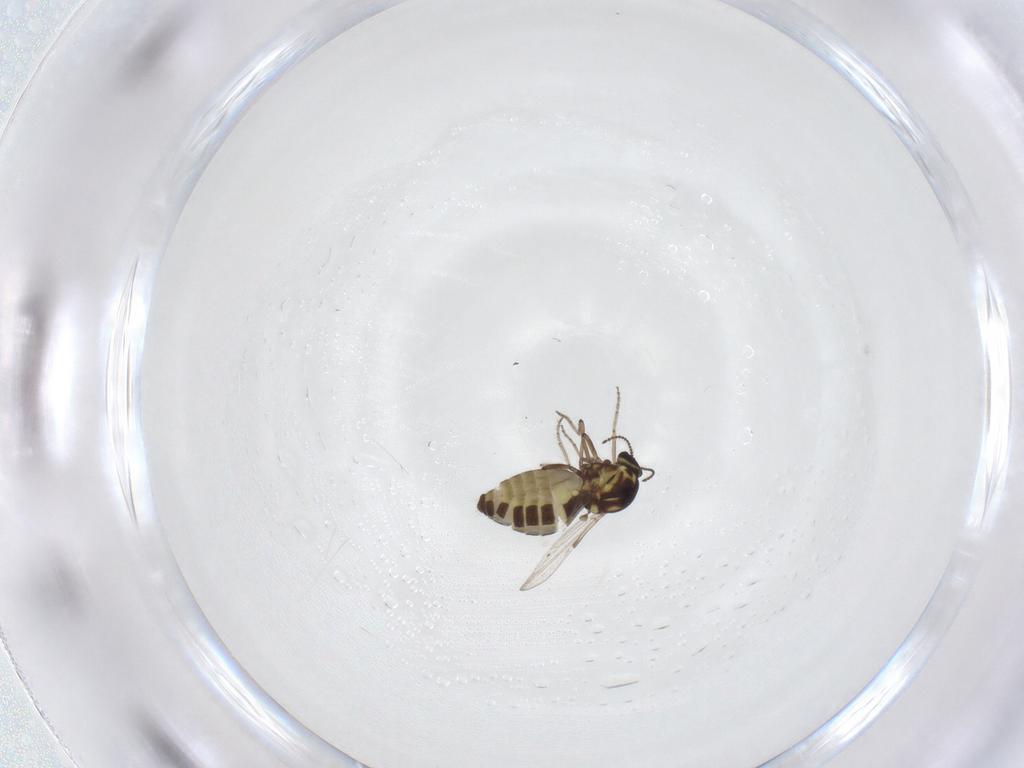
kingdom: Animalia
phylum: Arthropoda
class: Insecta
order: Diptera
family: Ceratopogonidae
